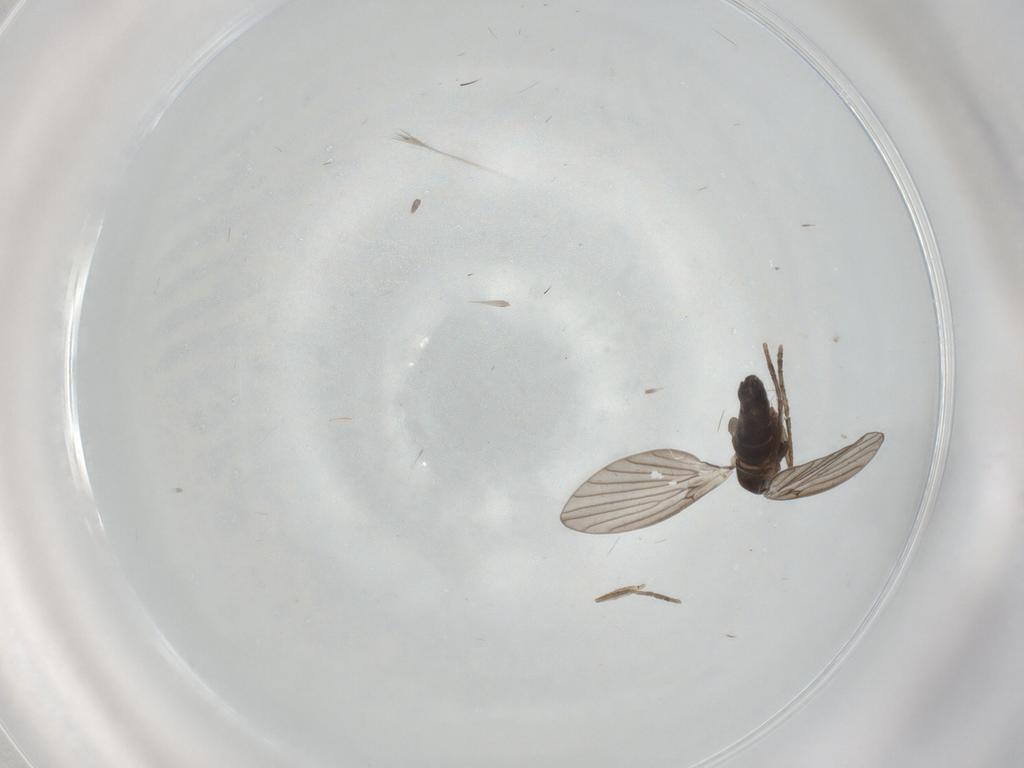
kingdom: Animalia
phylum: Arthropoda
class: Insecta
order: Diptera
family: Phoridae
